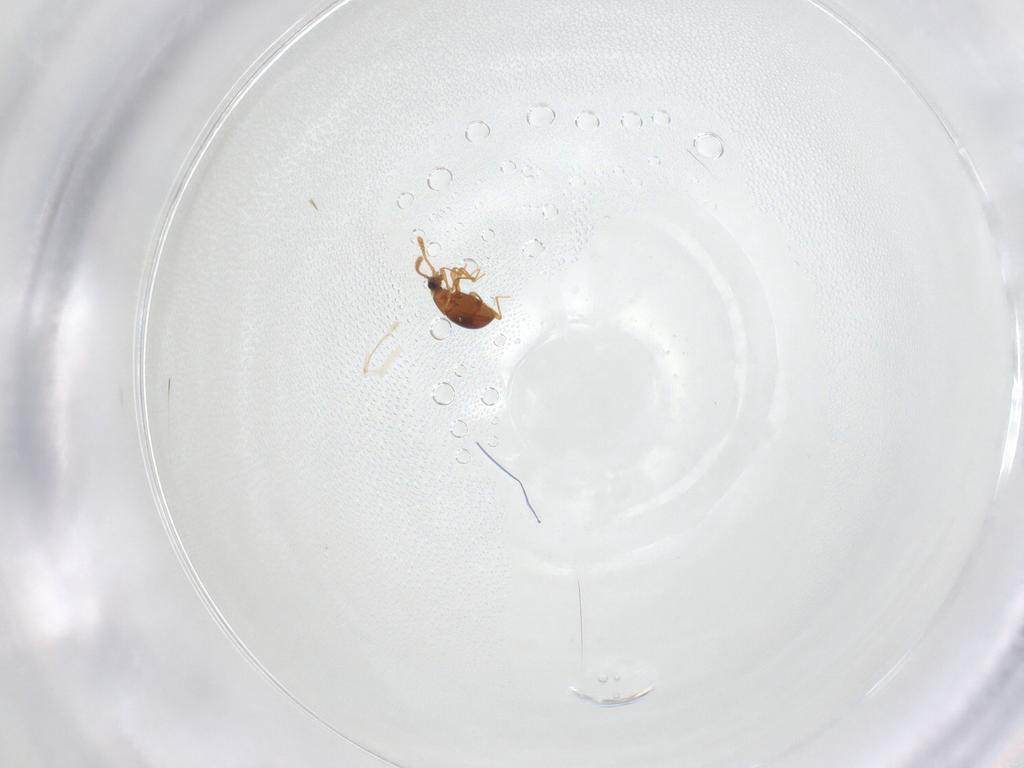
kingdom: Animalia
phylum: Arthropoda
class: Insecta
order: Coleoptera
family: Staphylinidae
